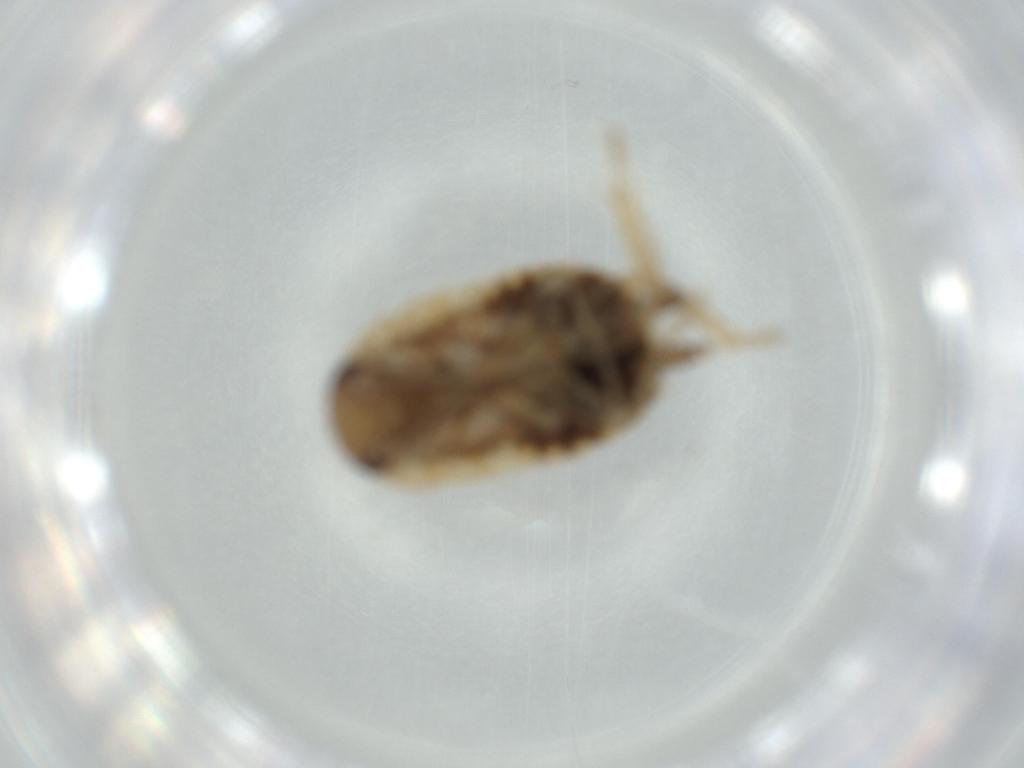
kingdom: Animalia
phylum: Arthropoda
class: Insecta
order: Blattodea
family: Ectobiidae
